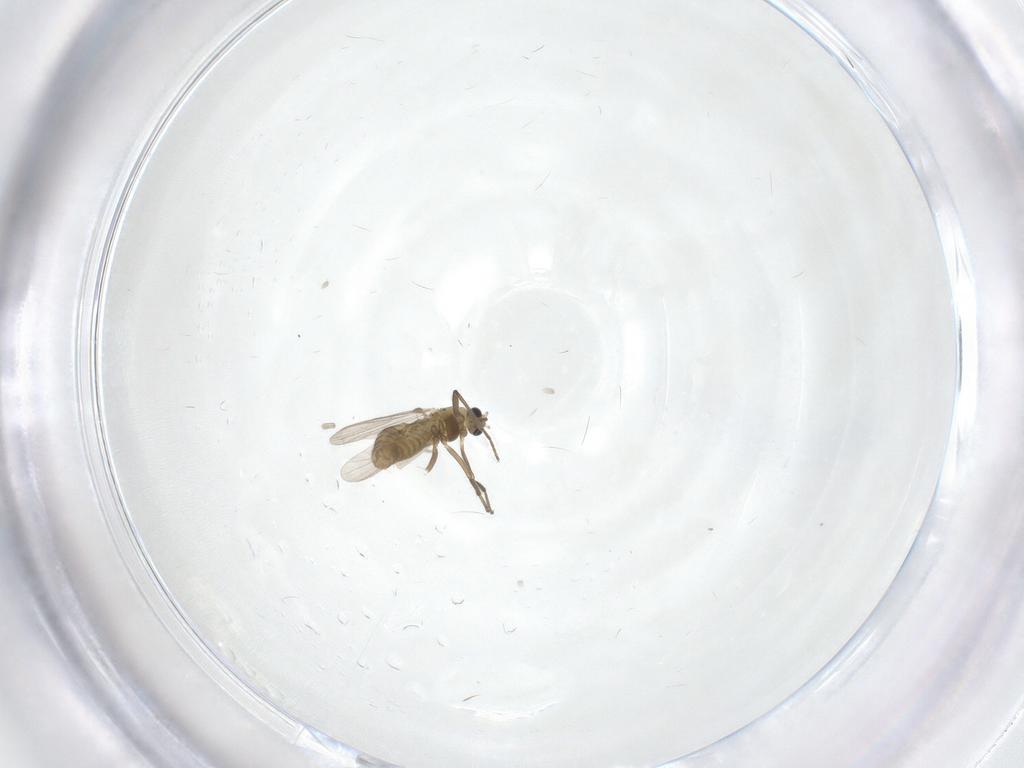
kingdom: Animalia
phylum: Arthropoda
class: Insecta
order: Diptera
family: Chironomidae
